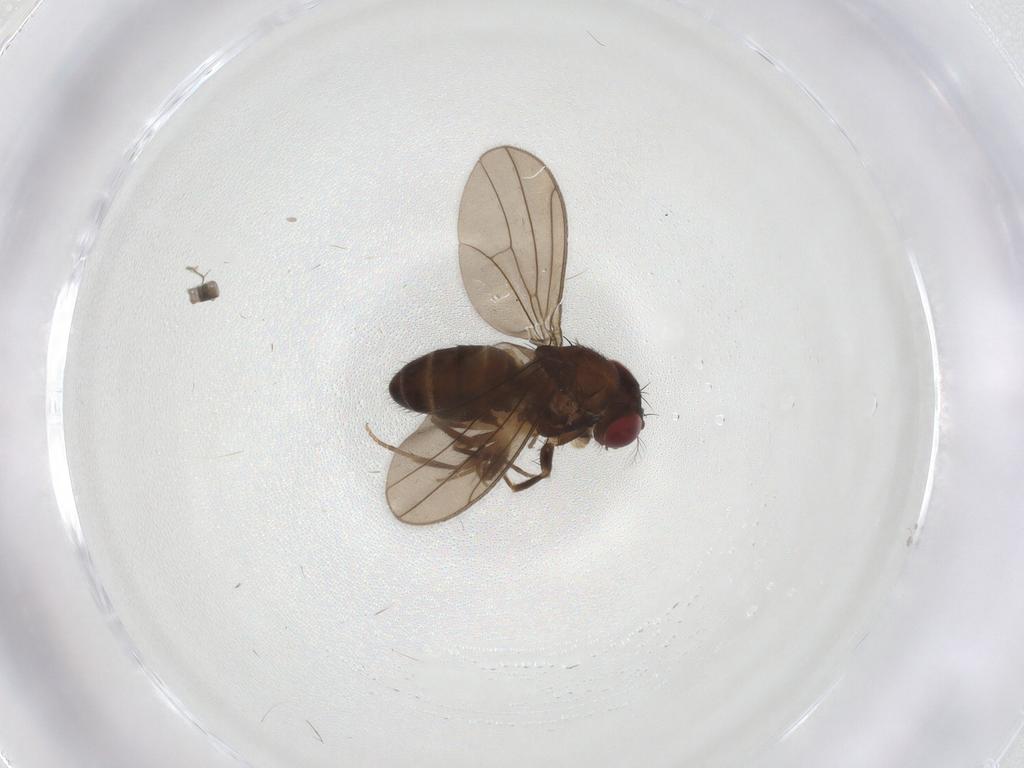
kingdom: Animalia
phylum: Arthropoda
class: Insecta
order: Diptera
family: Drosophilidae
